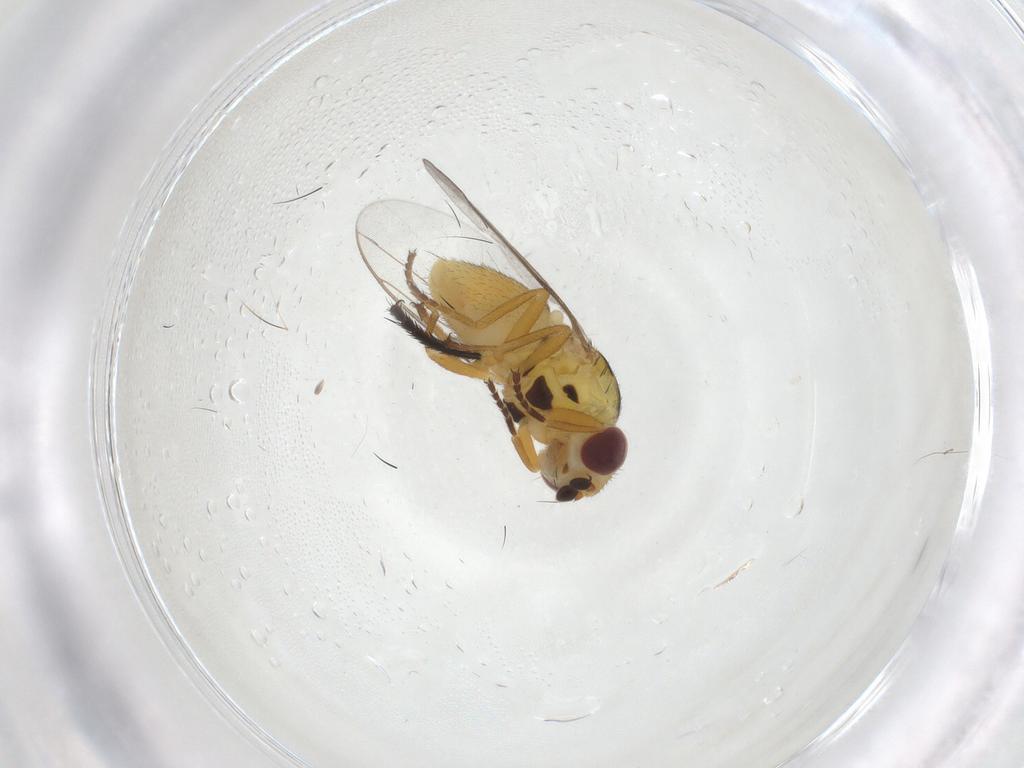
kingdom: Animalia
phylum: Arthropoda
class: Insecta
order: Diptera
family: Chloropidae
